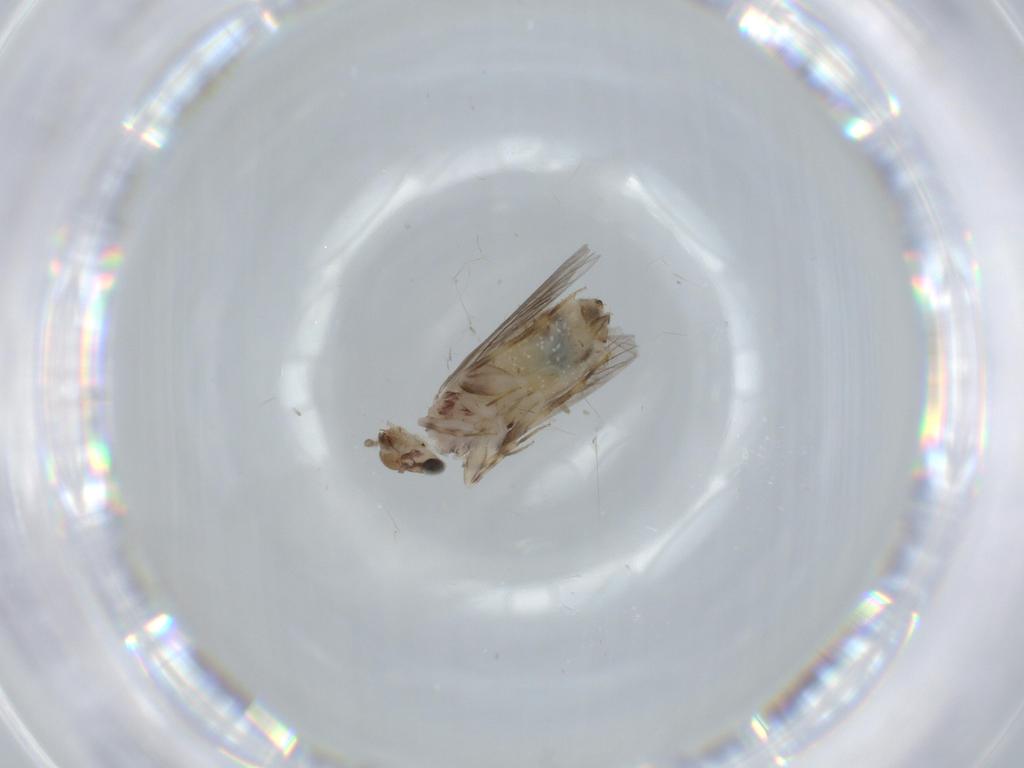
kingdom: Animalia
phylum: Arthropoda
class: Insecta
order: Psocodea
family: Lepidopsocidae
